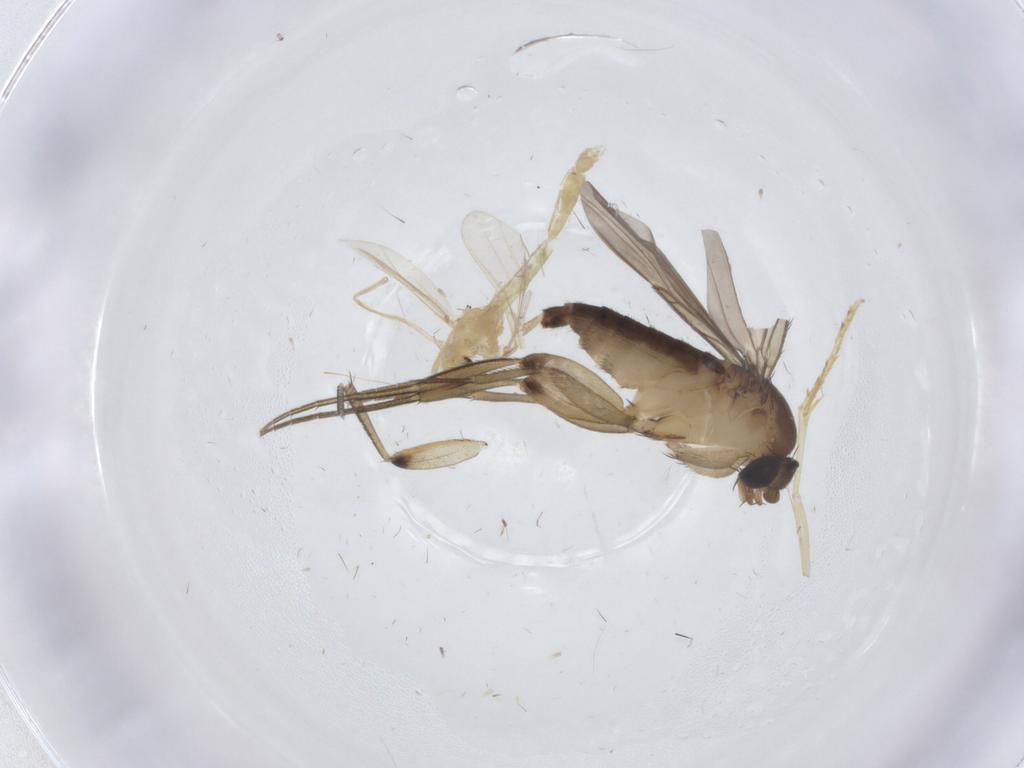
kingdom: Animalia
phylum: Arthropoda
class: Insecta
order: Diptera
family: Phoridae
